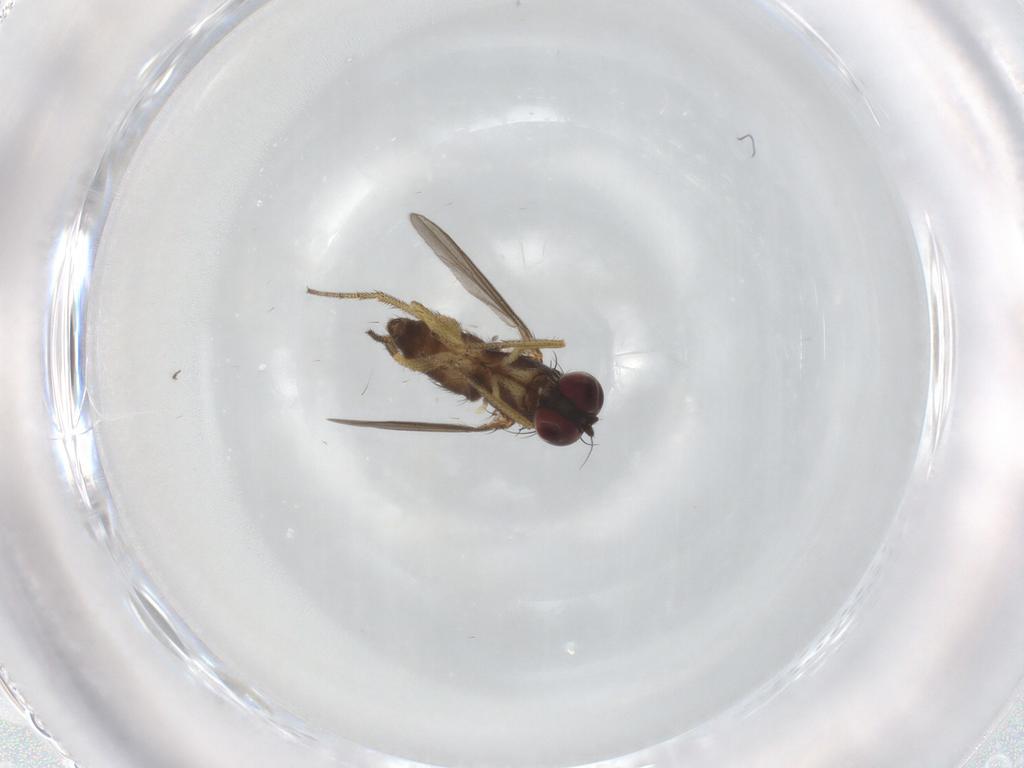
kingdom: Animalia
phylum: Arthropoda
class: Insecta
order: Diptera
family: Dolichopodidae
